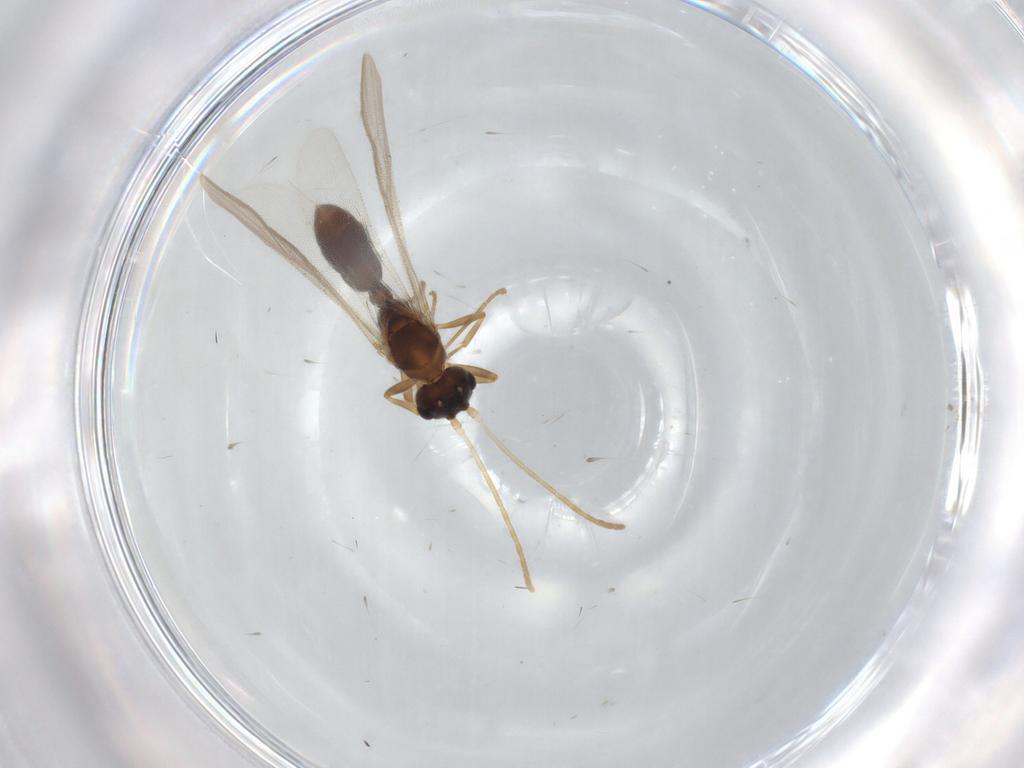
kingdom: Animalia
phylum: Arthropoda
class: Insecta
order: Hymenoptera
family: Formicidae
